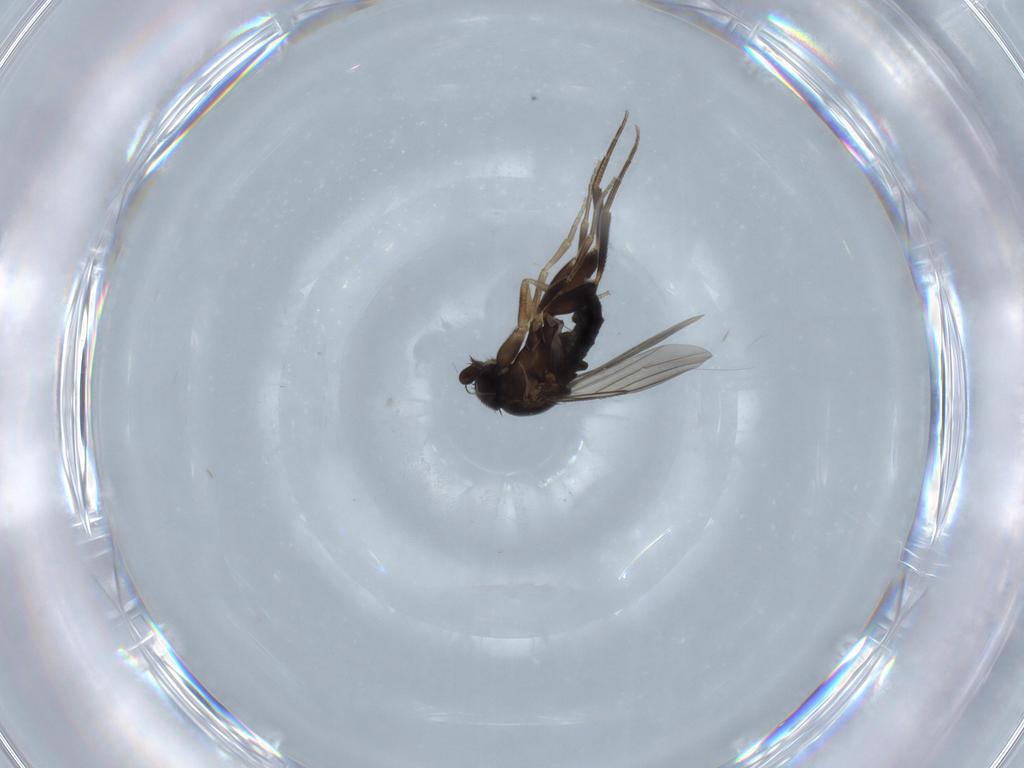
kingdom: Animalia
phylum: Arthropoda
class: Insecta
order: Diptera
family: Phoridae
